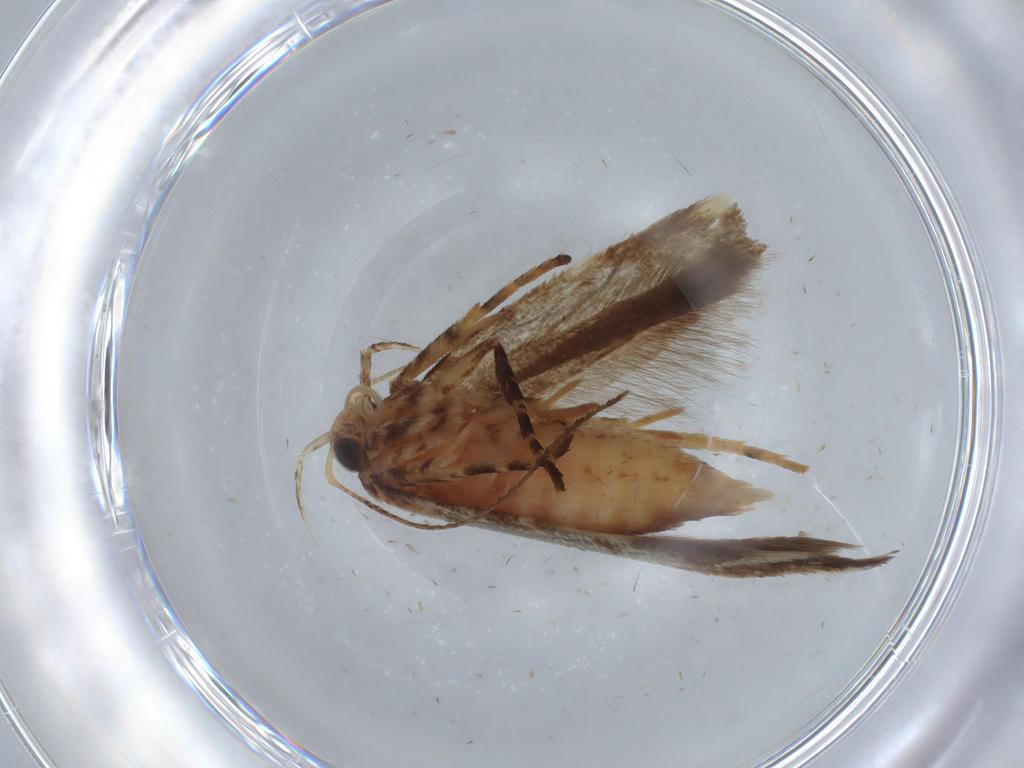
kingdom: Animalia
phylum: Arthropoda
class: Insecta
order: Lepidoptera
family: Gelechiidae
